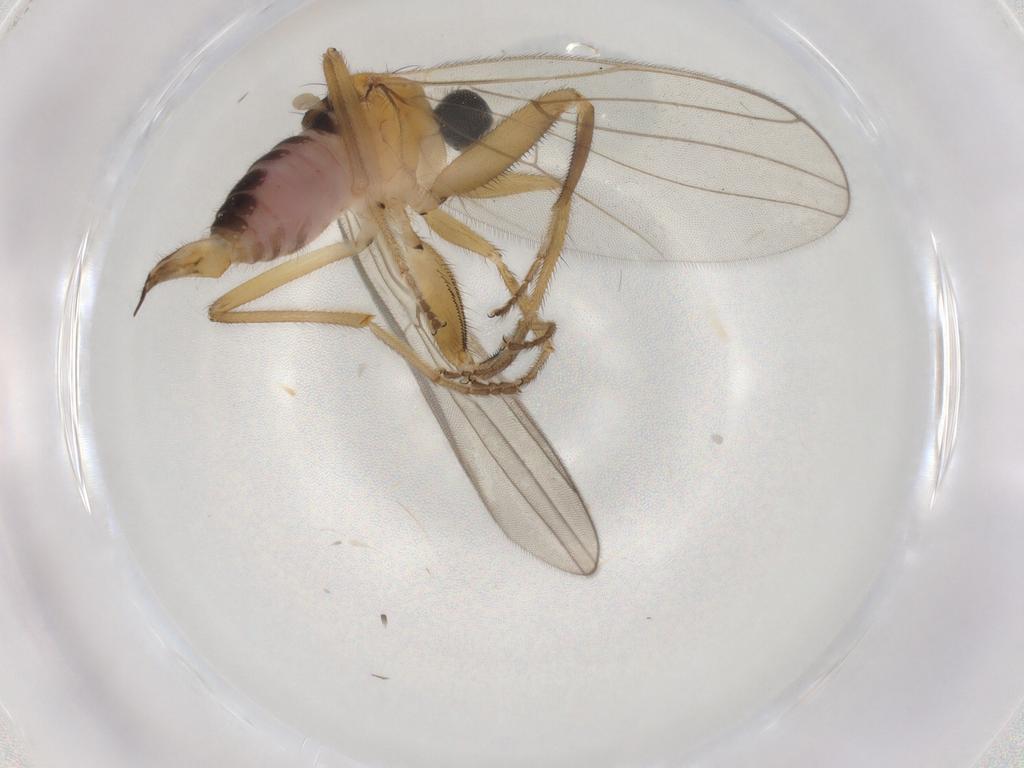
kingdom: Animalia
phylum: Arthropoda
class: Insecta
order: Diptera
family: Hybotidae
